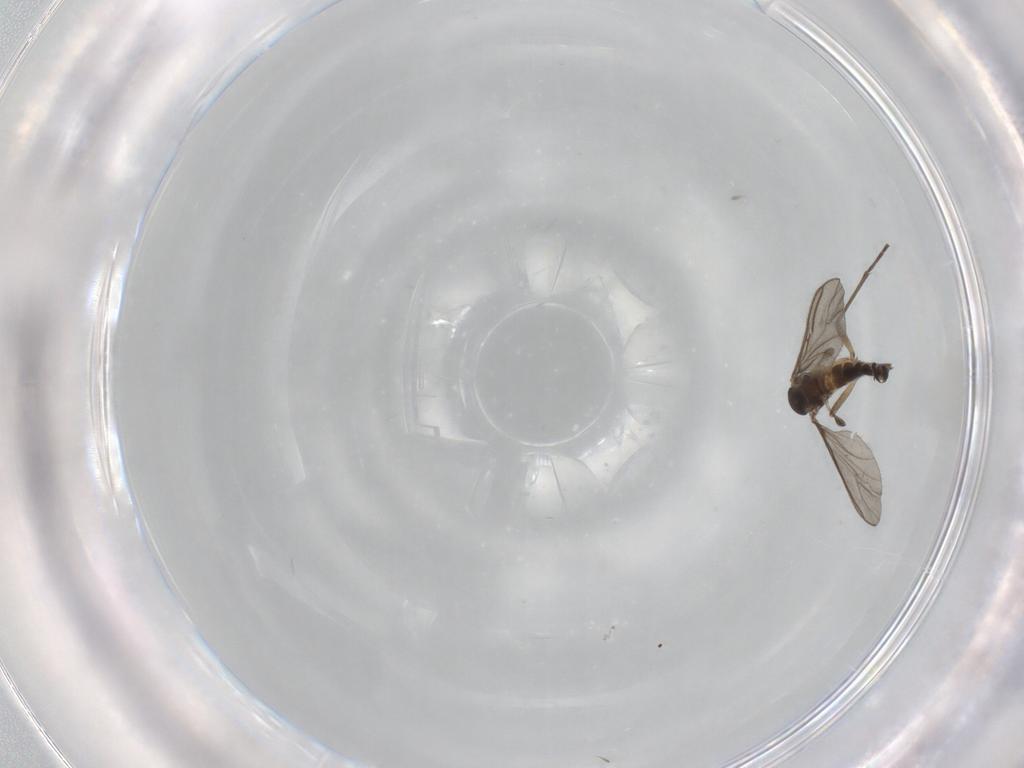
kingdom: Animalia
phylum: Arthropoda
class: Insecta
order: Diptera
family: Sciaridae
